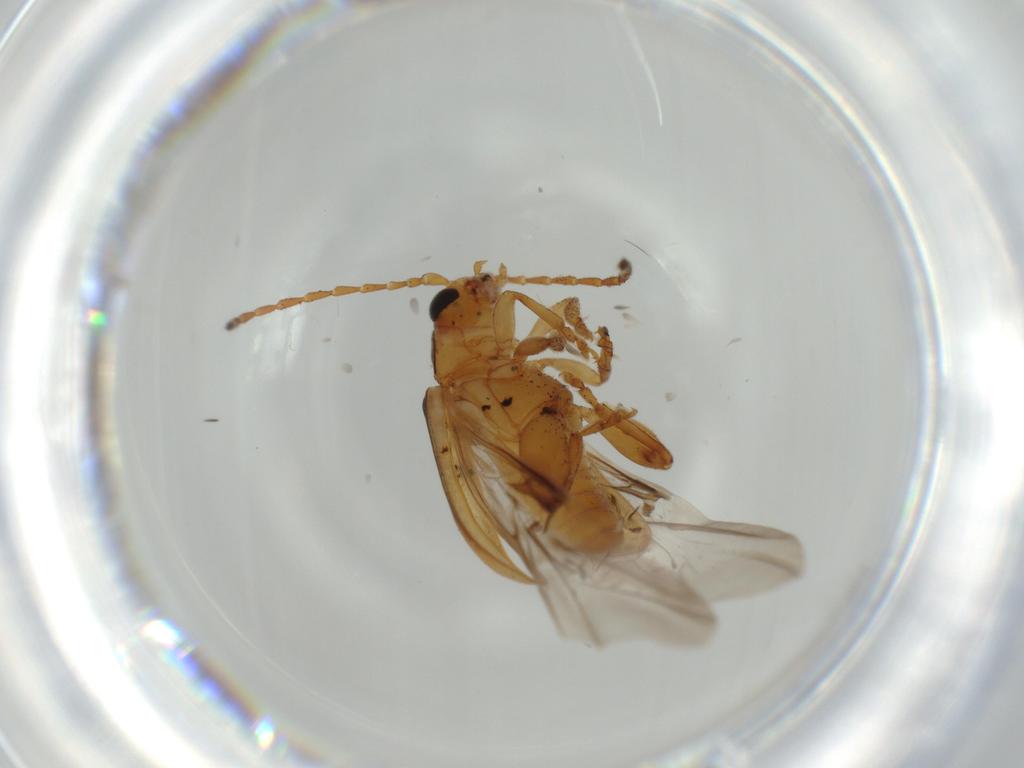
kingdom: Animalia
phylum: Arthropoda
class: Insecta
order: Coleoptera
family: Chrysomelidae
